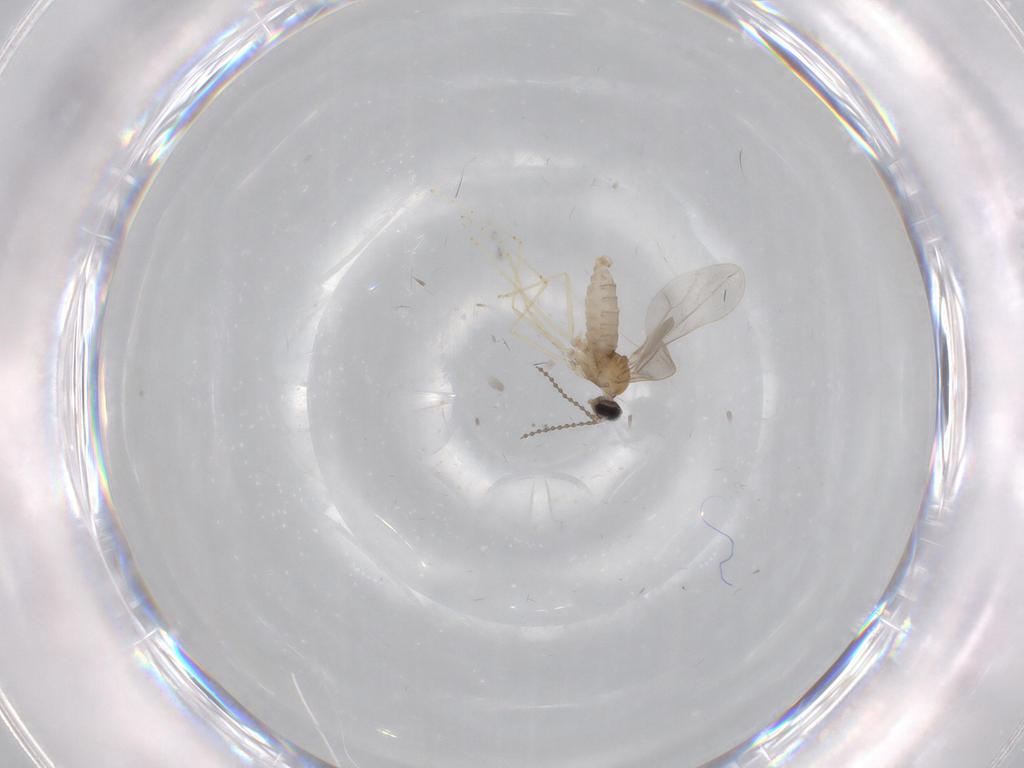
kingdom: Animalia
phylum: Arthropoda
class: Insecta
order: Diptera
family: Cecidomyiidae
